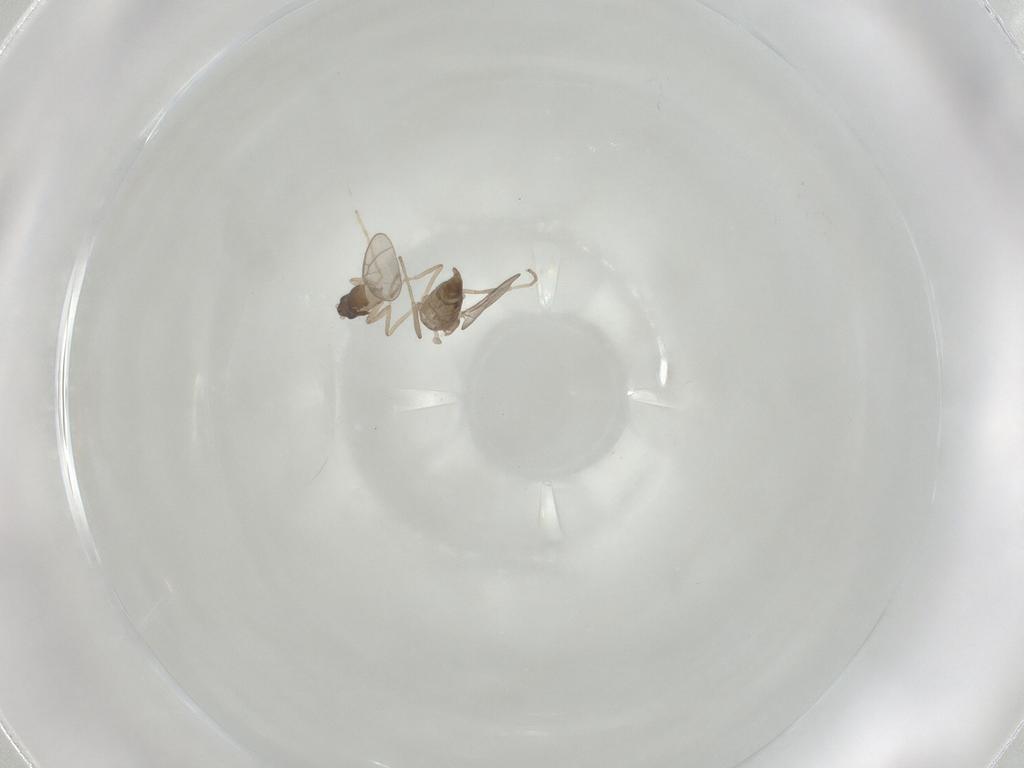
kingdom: Animalia
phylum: Arthropoda
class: Insecta
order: Diptera
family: Cecidomyiidae
